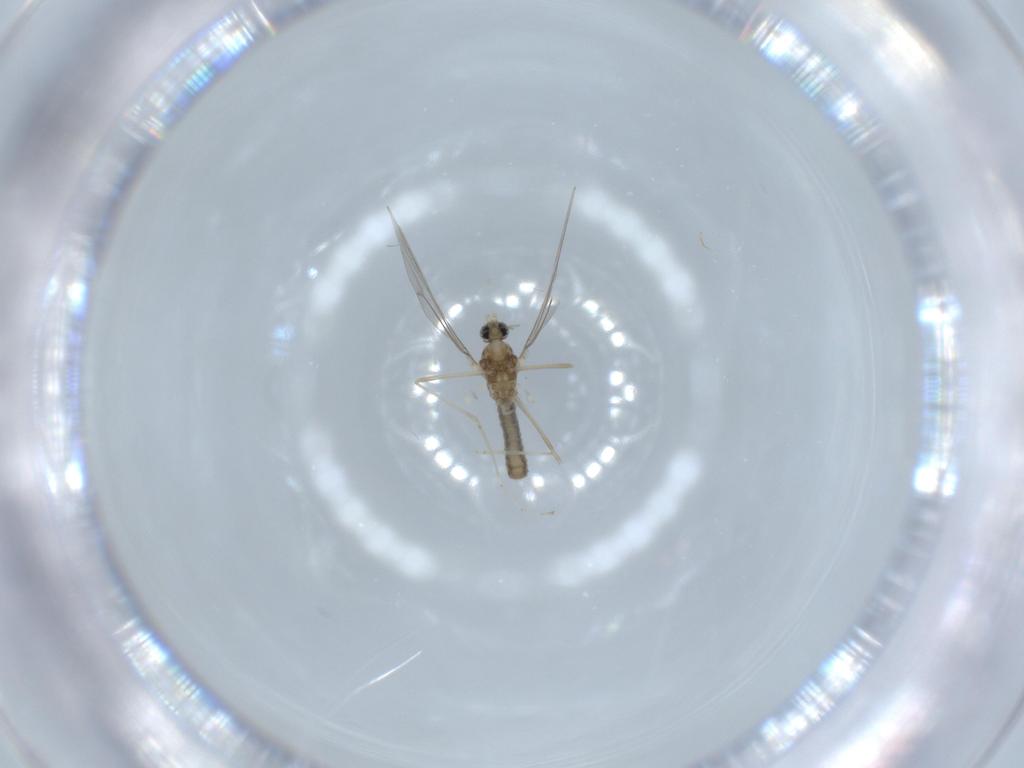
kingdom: Animalia
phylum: Arthropoda
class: Insecta
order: Diptera
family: Cecidomyiidae
